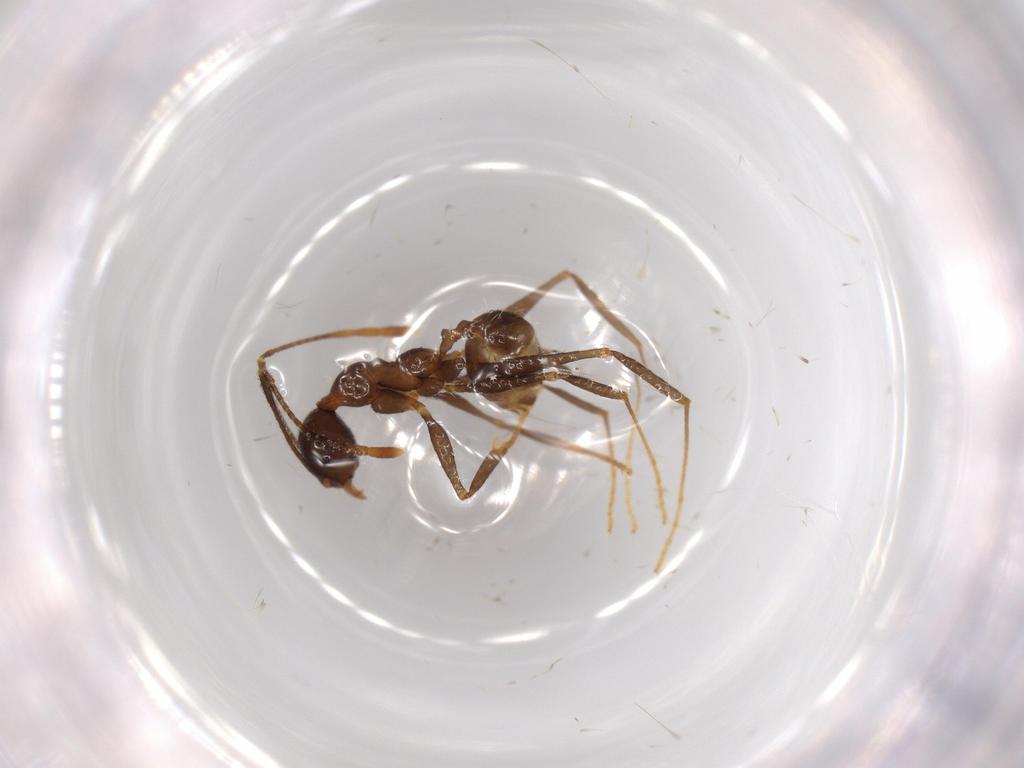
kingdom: Animalia
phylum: Arthropoda
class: Insecta
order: Hymenoptera
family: Formicidae
